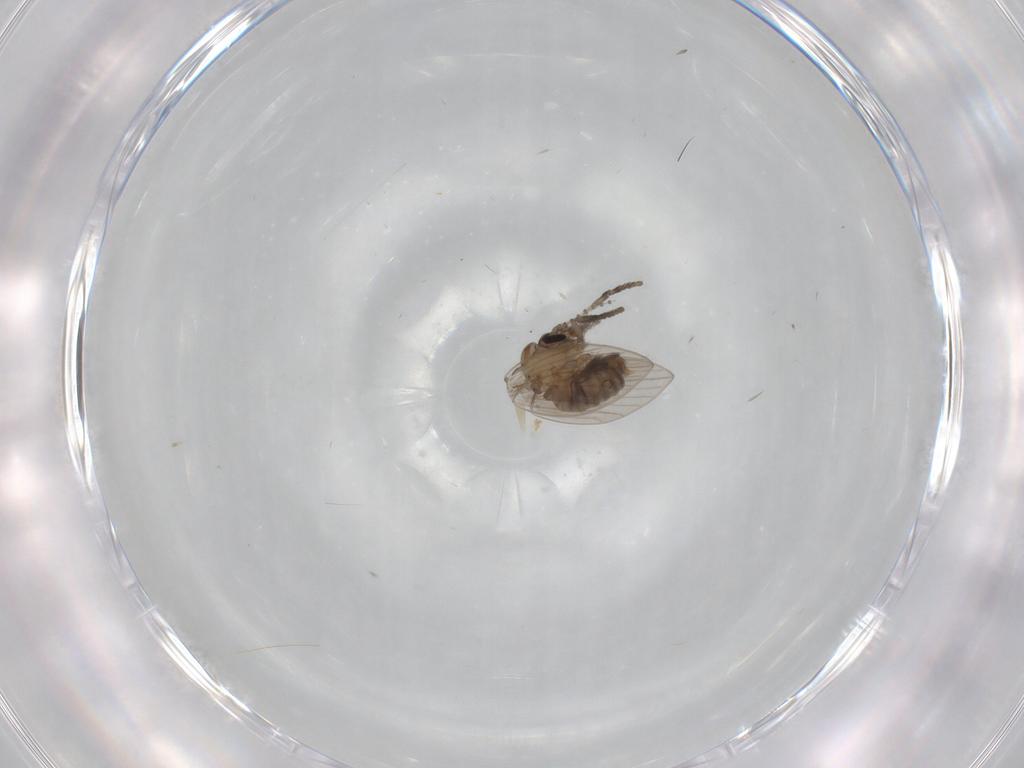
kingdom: Animalia
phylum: Arthropoda
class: Insecta
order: Diptera
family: Psychodidae
